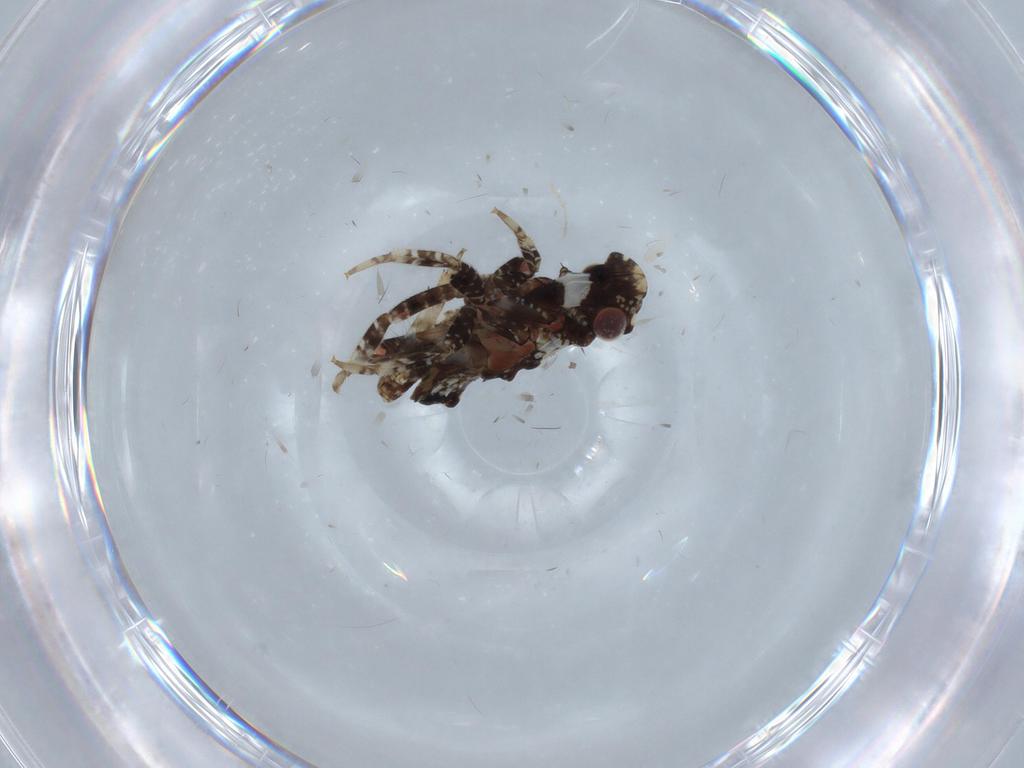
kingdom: Animalia
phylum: Arthropoda
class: Insecta
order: Hemiptera
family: Fulgoridae
